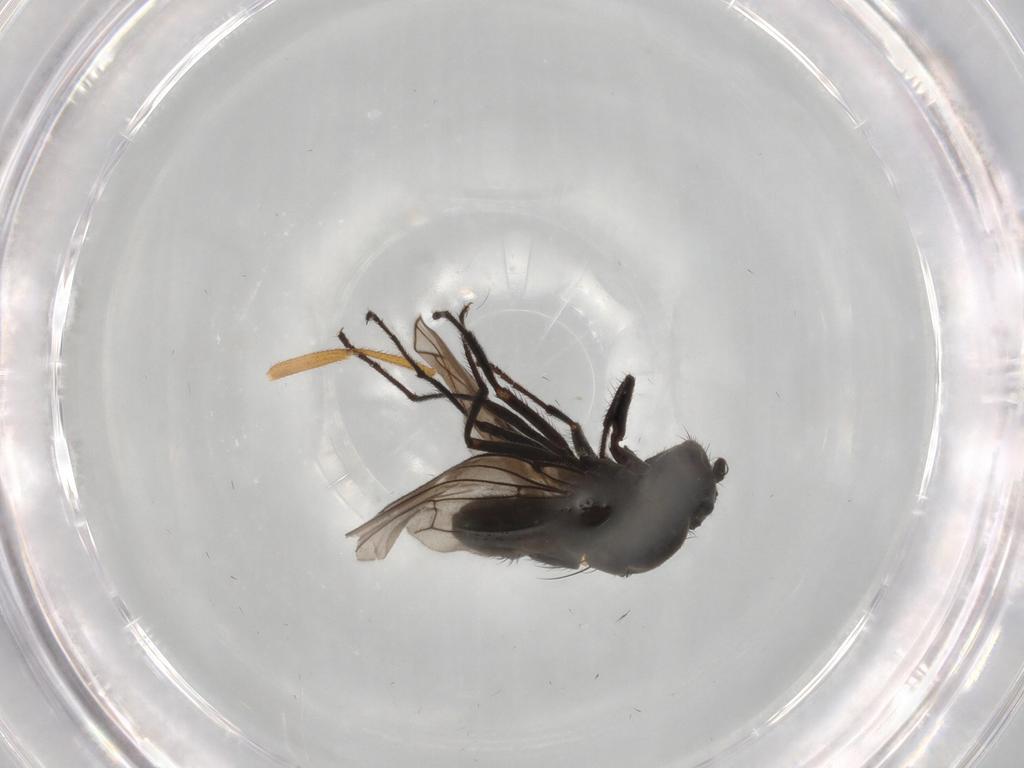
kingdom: Animalia
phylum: Arthropoda
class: Insecta
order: Diptera
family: Ephydridae
